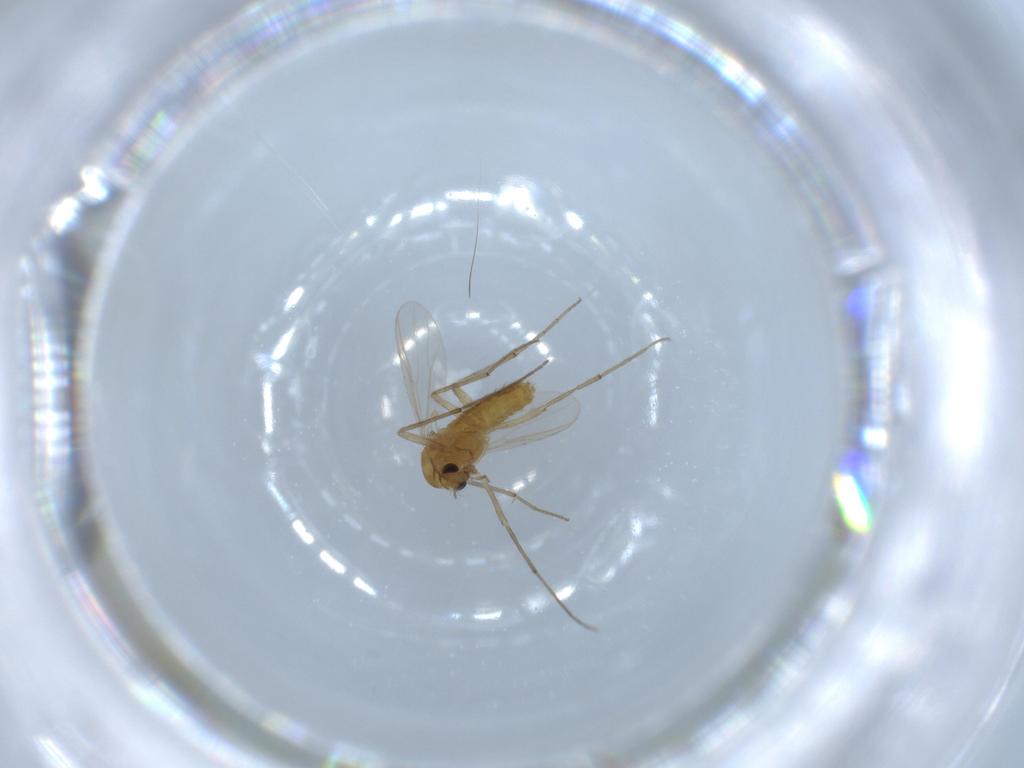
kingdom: Animalia
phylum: Arthropoda
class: Insecta
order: Diptera
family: Chironomidae
